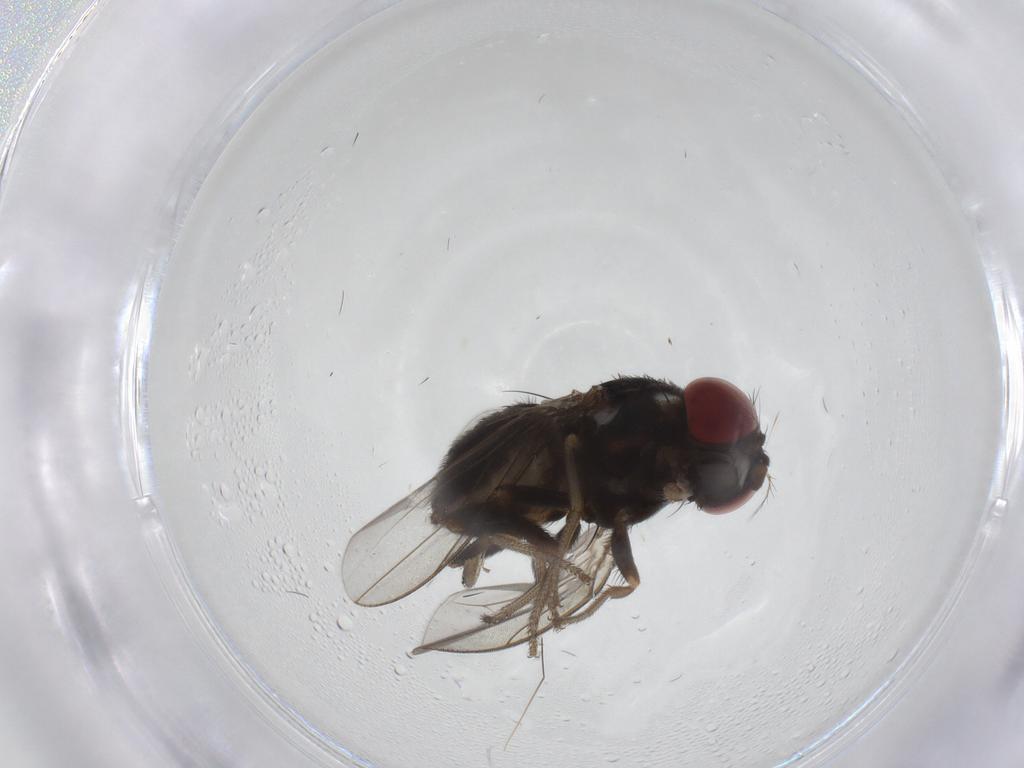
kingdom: Animalia
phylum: Arthropoda
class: Insecta
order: Diptera
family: Drosophilidae
